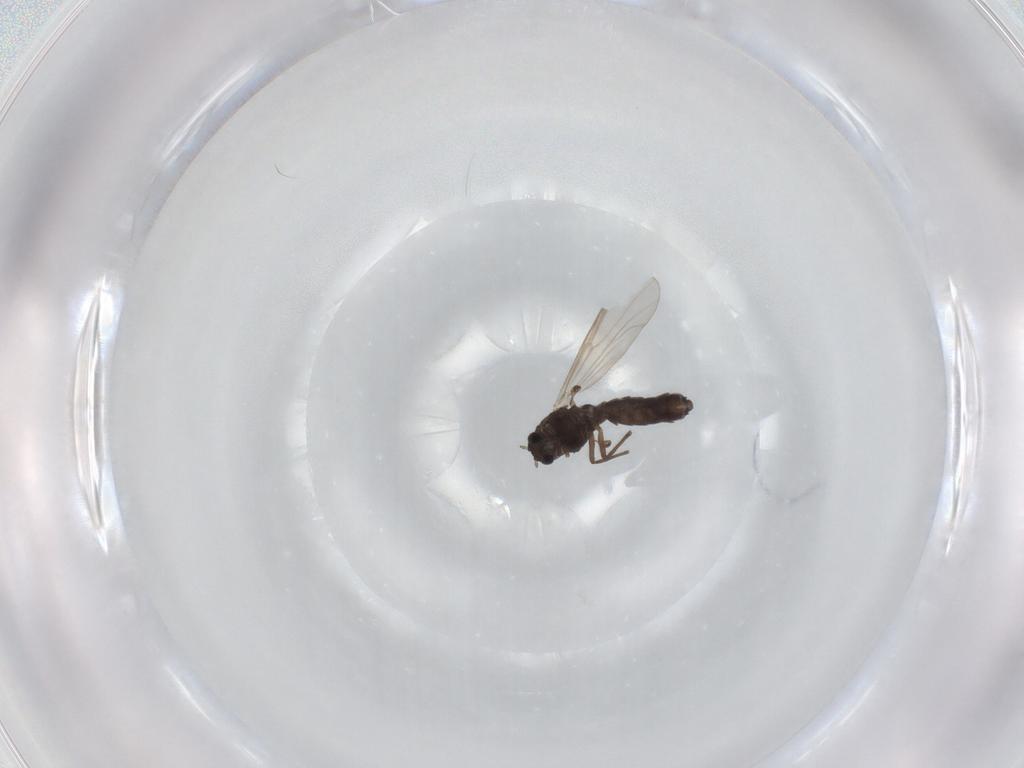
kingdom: Animalia
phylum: Arthropoda
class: Insecta
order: Diptera
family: Chironomidae
